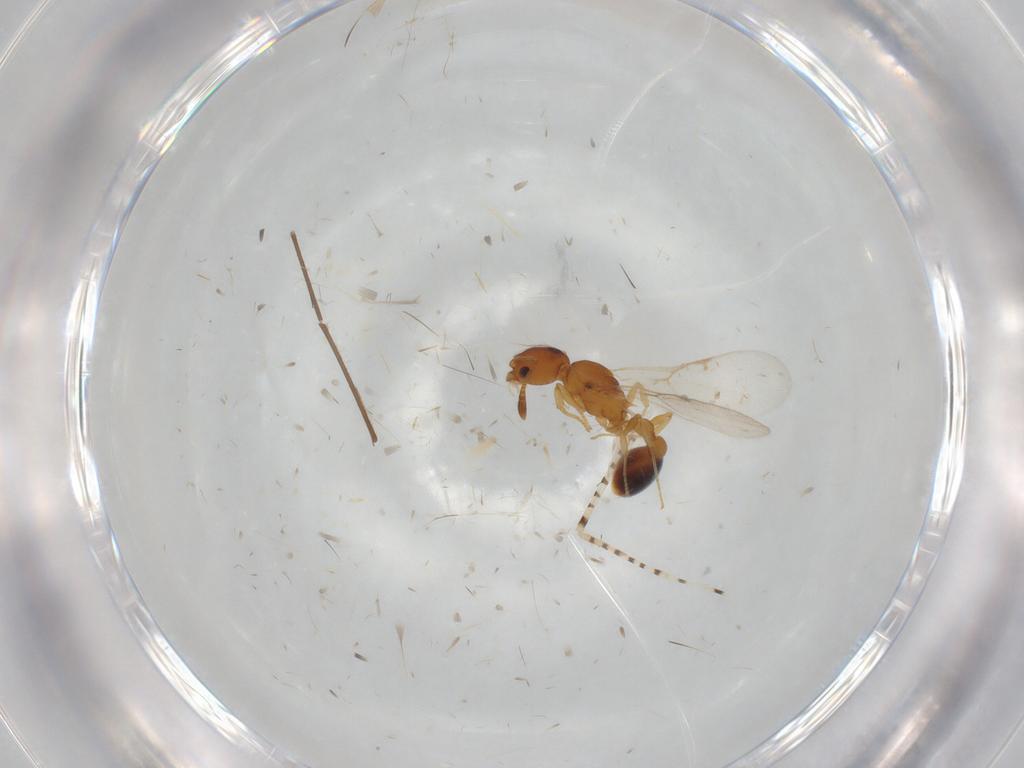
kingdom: Animalia
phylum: Arthropoda
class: Insecta
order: Hymenoptera
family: Formicidae
